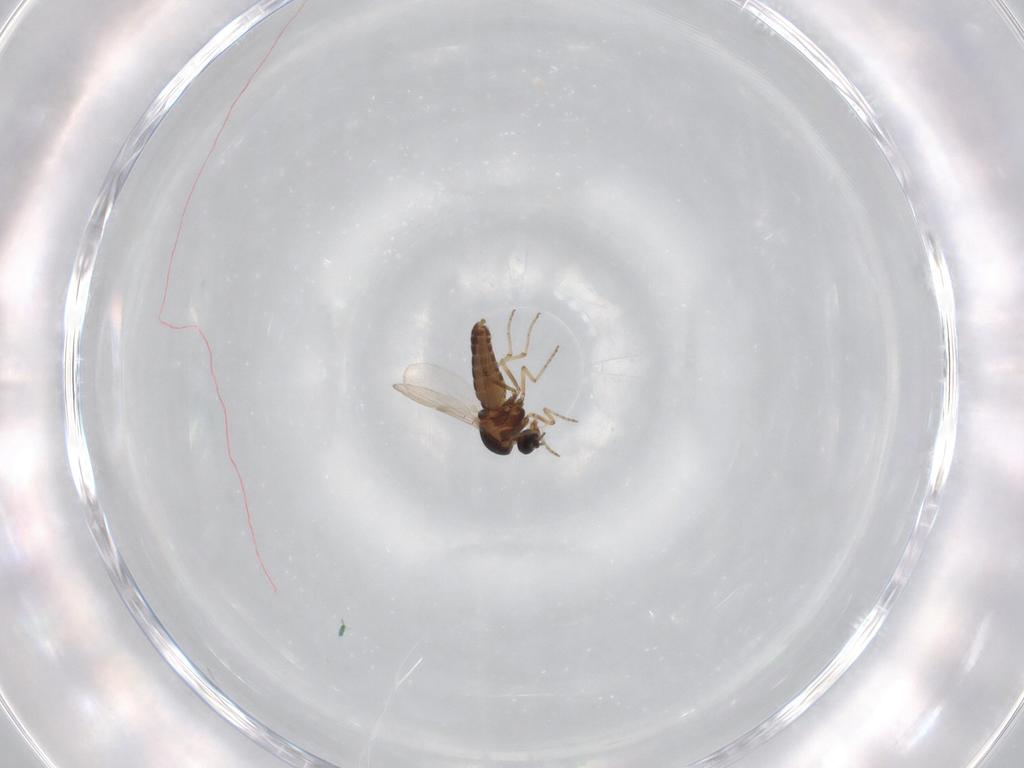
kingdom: Animalia
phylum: Arthropoda
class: Insecta
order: Diptera
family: Ceratopogonidae
